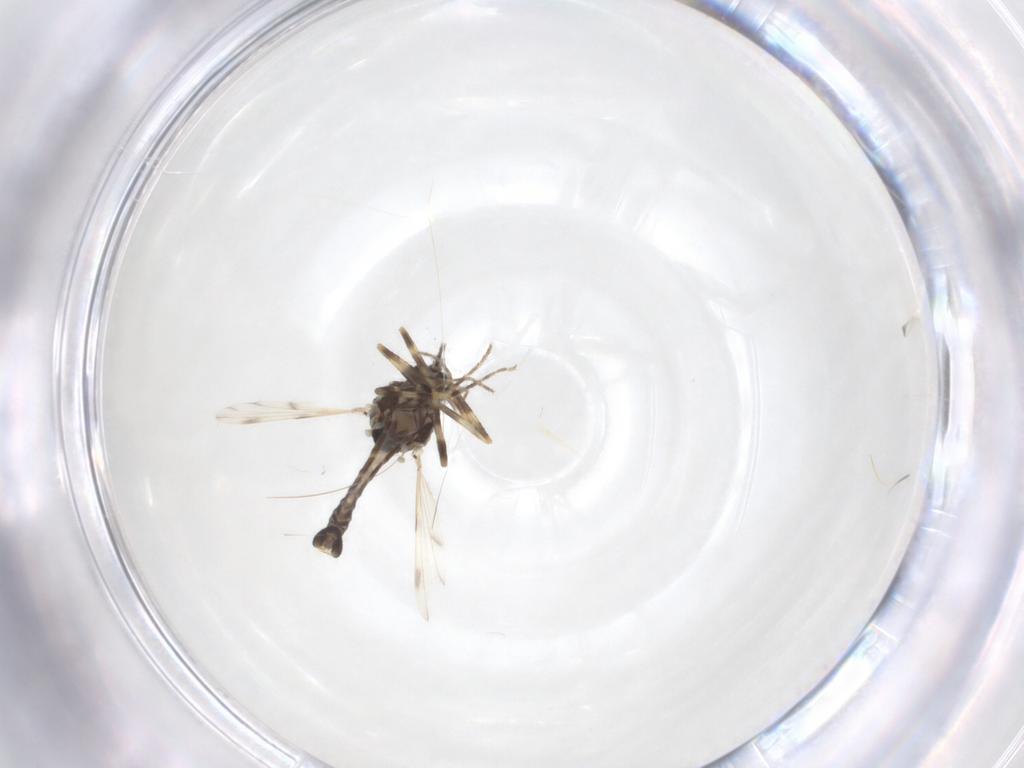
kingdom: Animalia
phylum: Arthropoda
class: Insecta
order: Diptera
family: Ceratopogonidae
